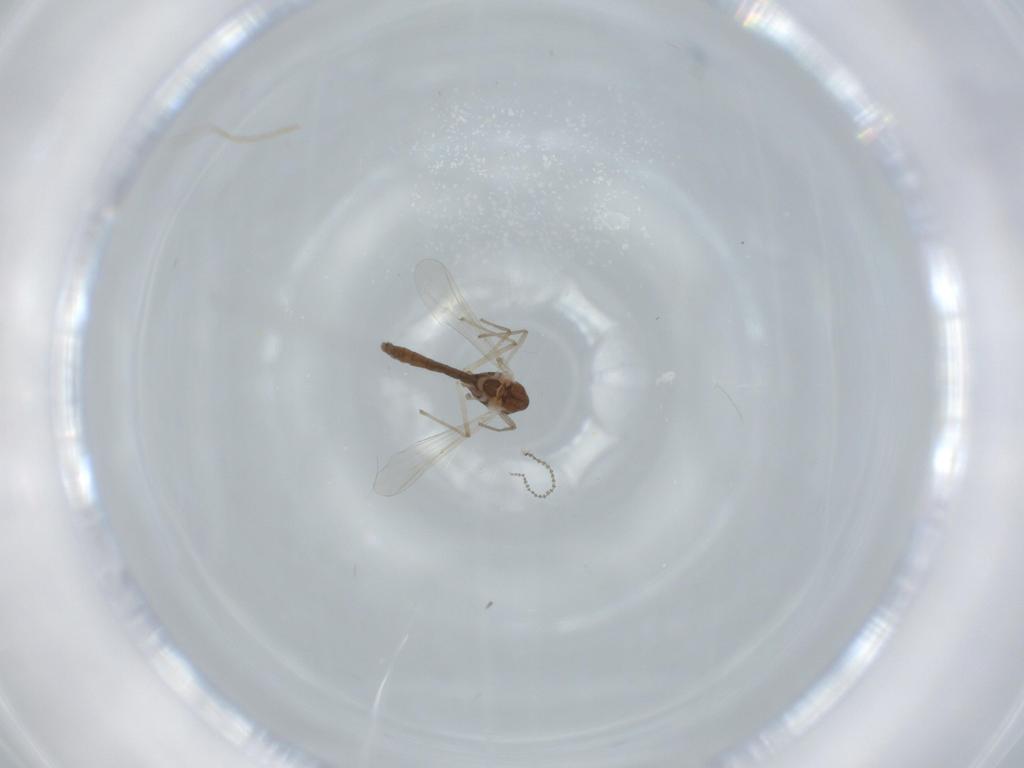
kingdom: Animalia
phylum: Arthropoda
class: Insecta
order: Diptera
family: Chironomidae
